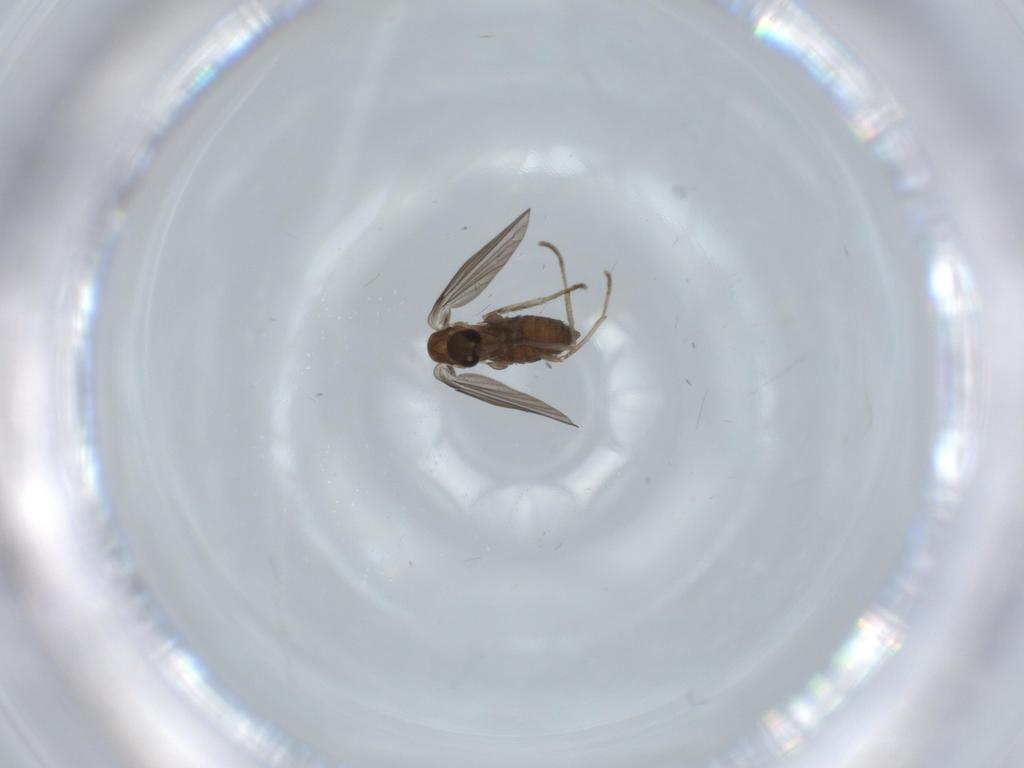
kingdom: Animalia
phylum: Arthropoda
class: Insecta
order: Diptera
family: Psychodidae
